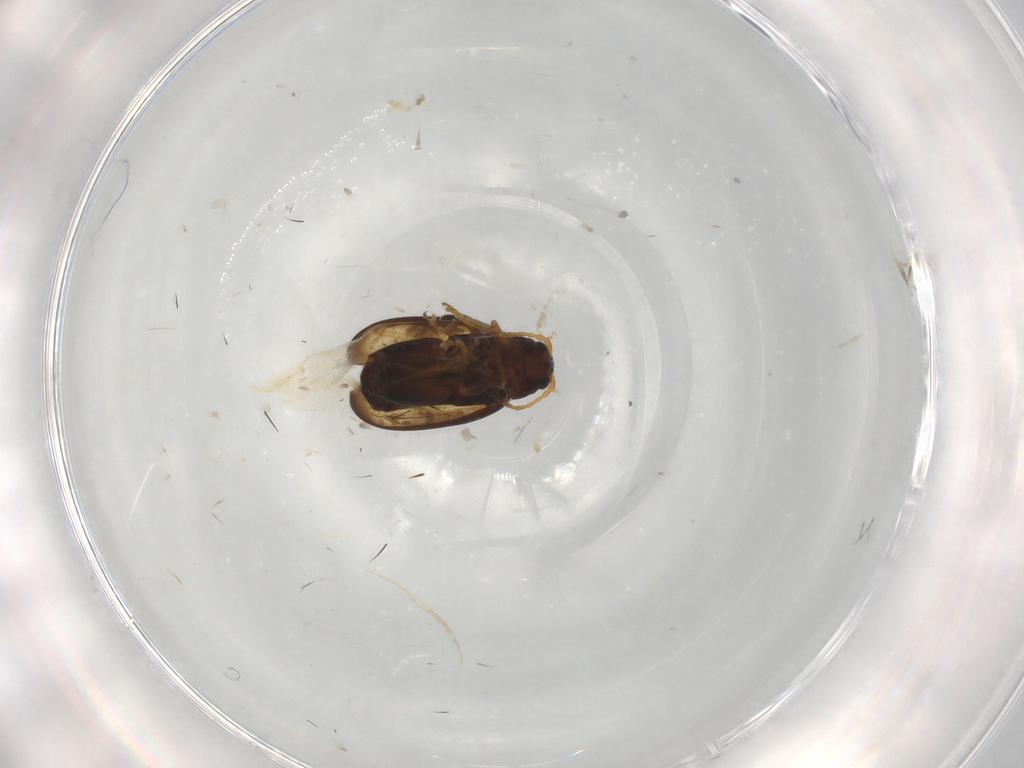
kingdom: Animalia
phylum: Arthropoda
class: Insecta
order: Coleoptera
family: Chrysomelidae
